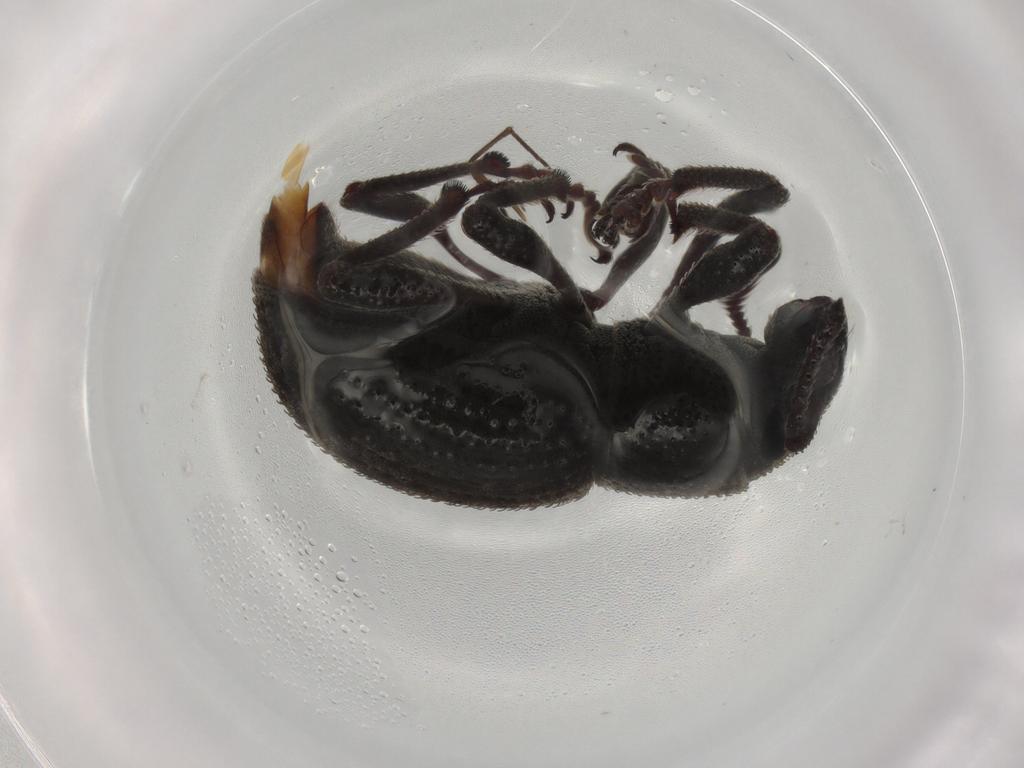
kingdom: Animalia
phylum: Arthropoda
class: Insecta
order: Coleoptera
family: Curculionidae
